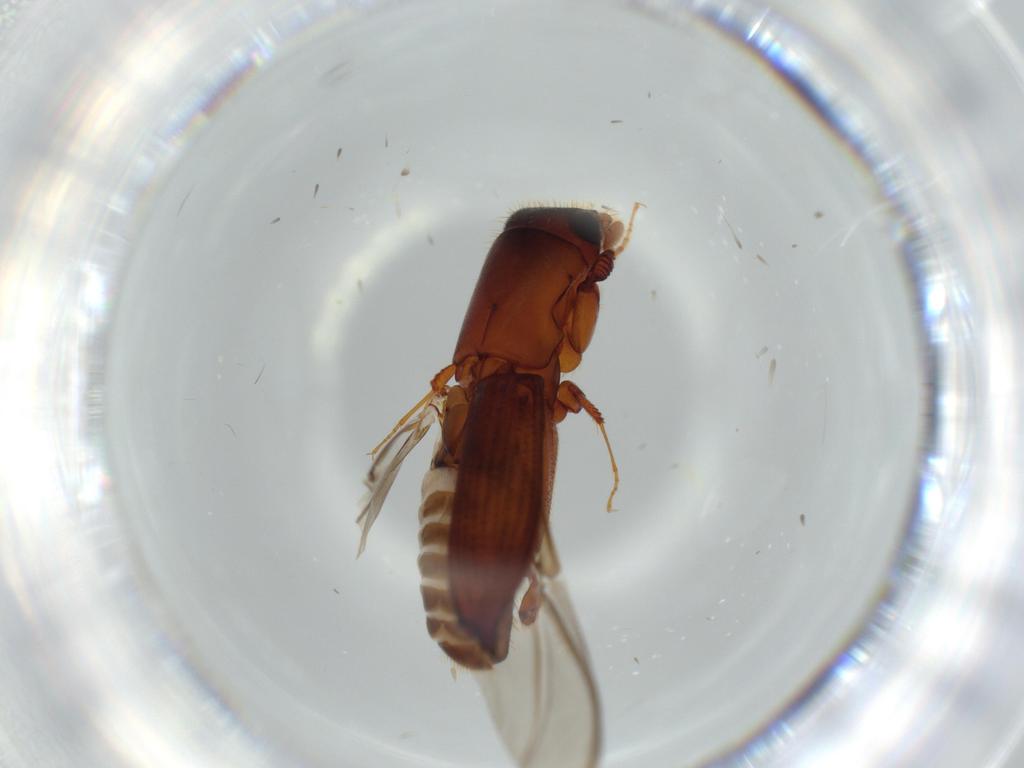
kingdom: Animalia
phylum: Arthropoda
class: Insecta
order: Coleoptera
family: Curculionidae
